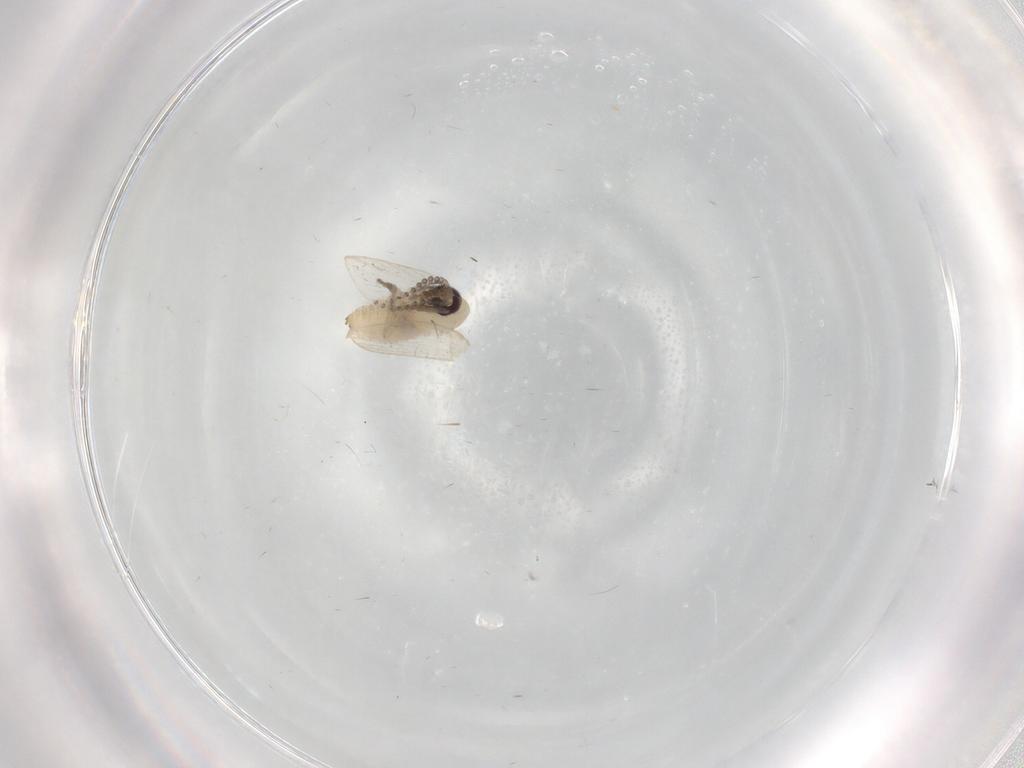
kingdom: Animalia
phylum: Arthropoda
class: Insecta
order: Diptera
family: Psychodidae
